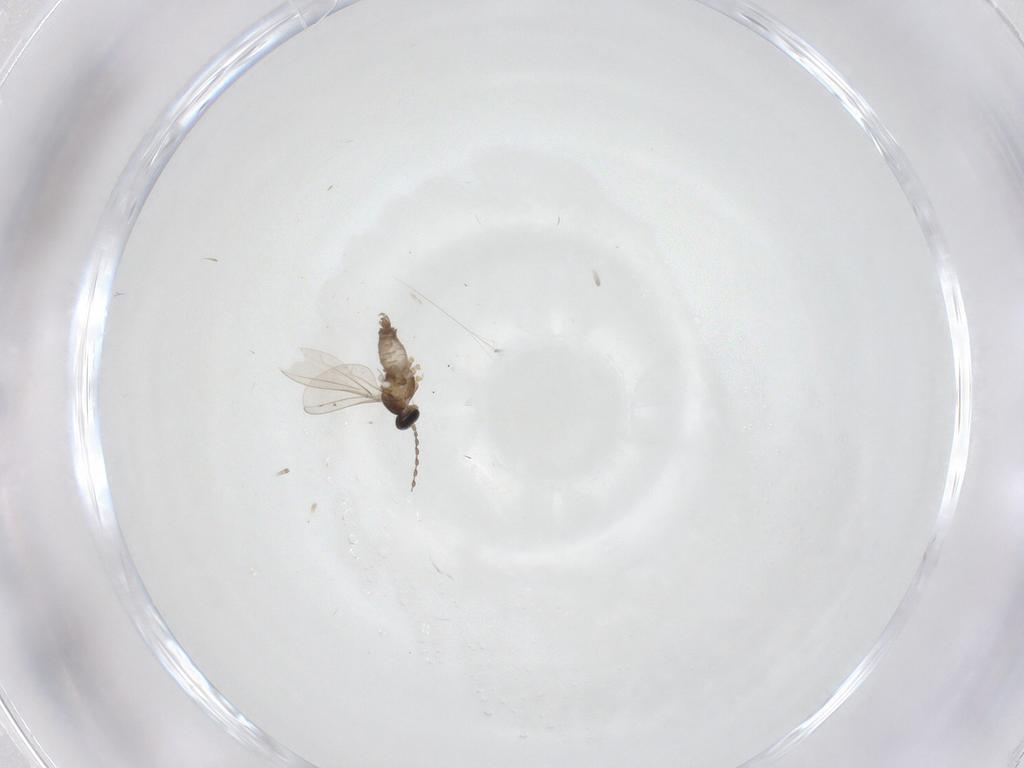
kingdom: Animalia
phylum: Arthropoda
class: Insecta
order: Diptera
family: Cecidomyiidae
